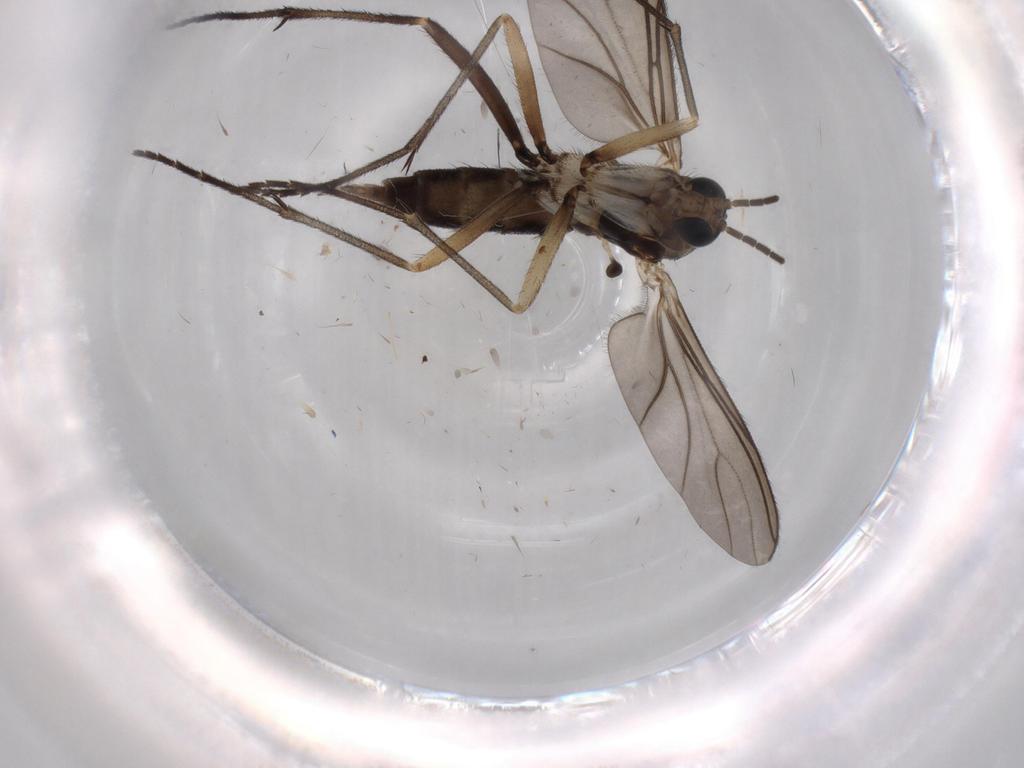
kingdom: Animalia
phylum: Arthropoda
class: Insecta
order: Diptera
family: Sciaridae
